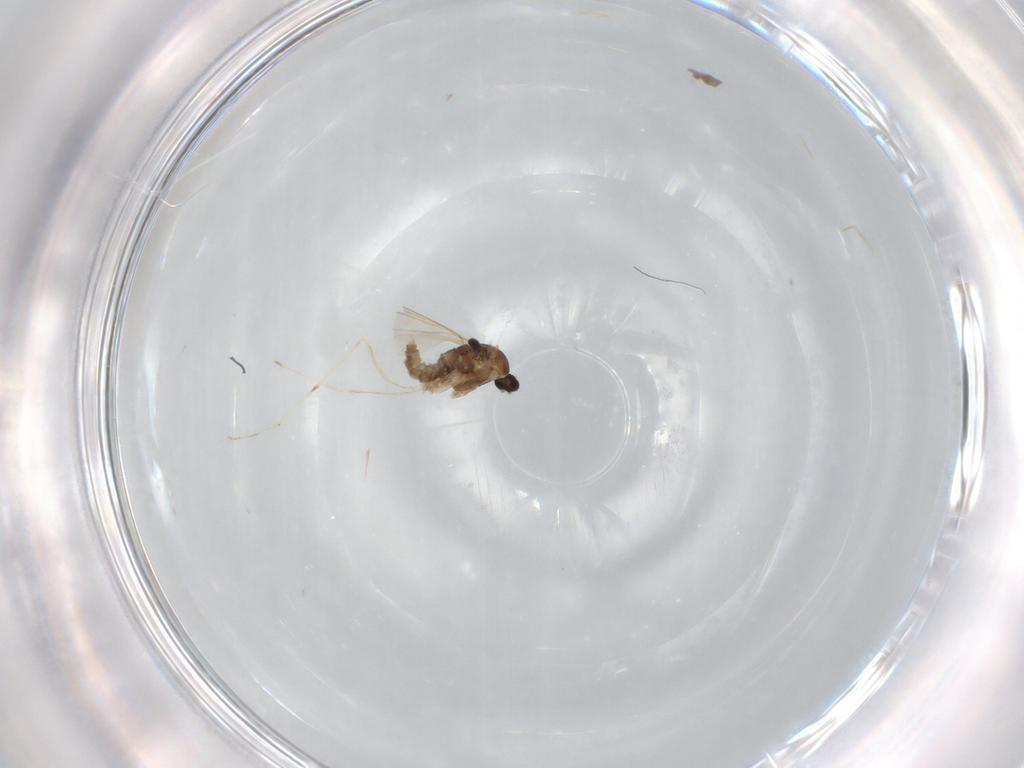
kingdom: Animalia
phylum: Arthropoda
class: Insecta
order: Diptera
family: Cecidomyiidae
